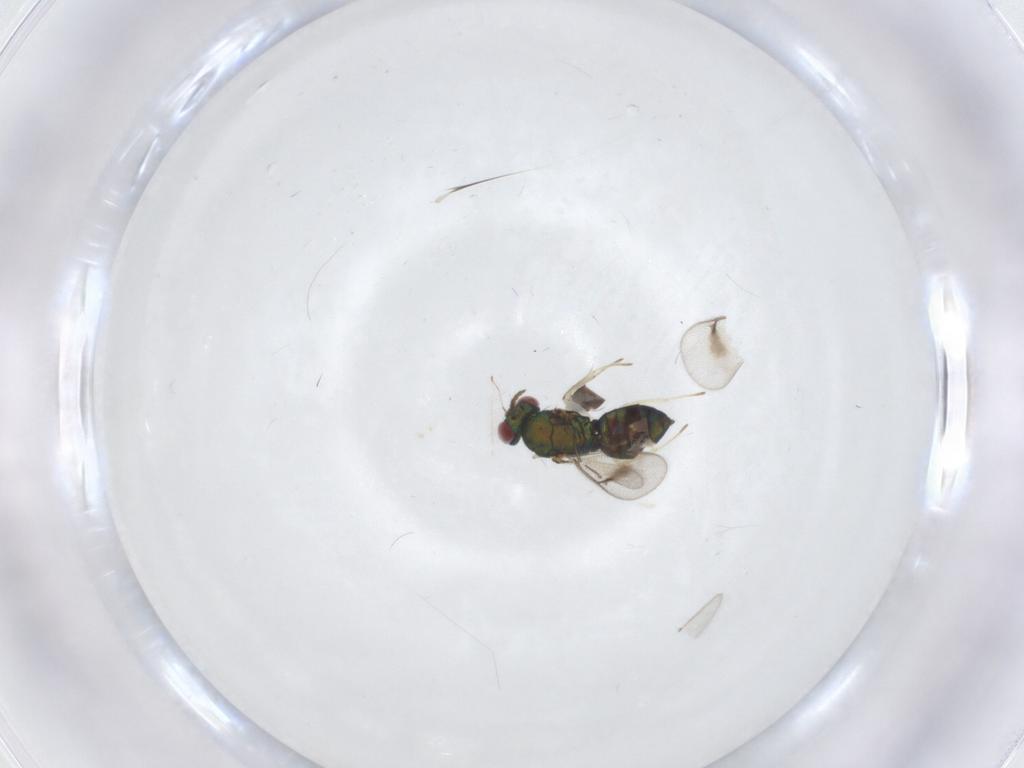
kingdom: Animalia
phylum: Arthropoda
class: Insecta
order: Hymenoptera
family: Eulophidae
